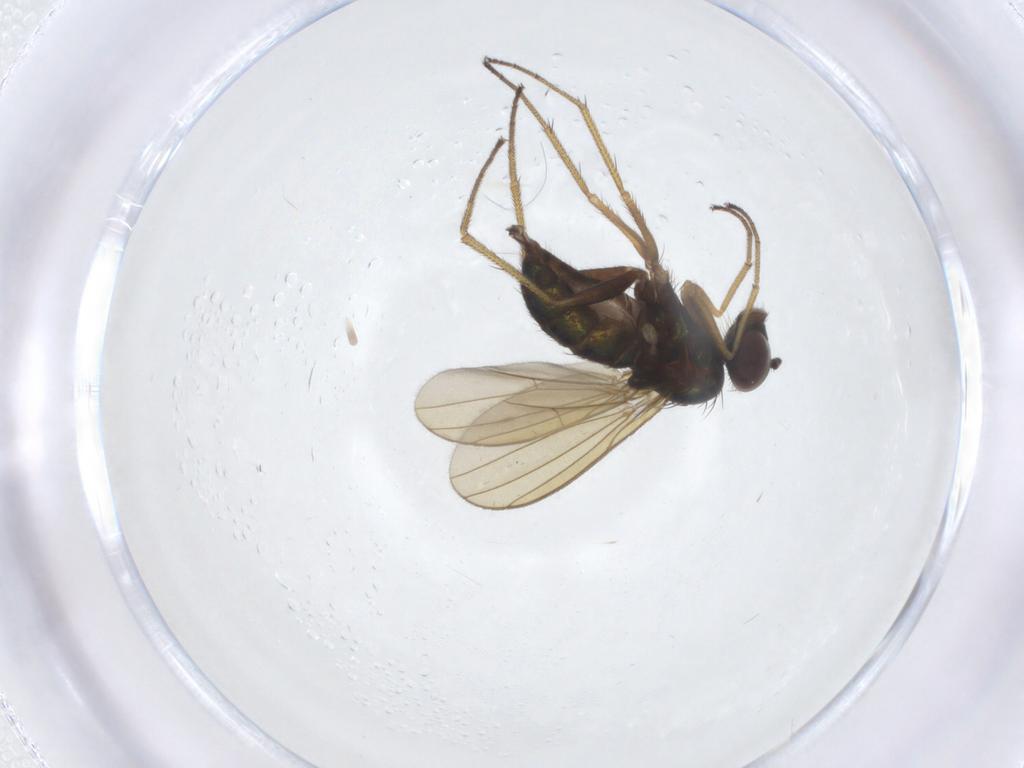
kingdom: Animalia
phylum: Arthropoda
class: Insecta
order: Diptera
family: Dolichopodidae
